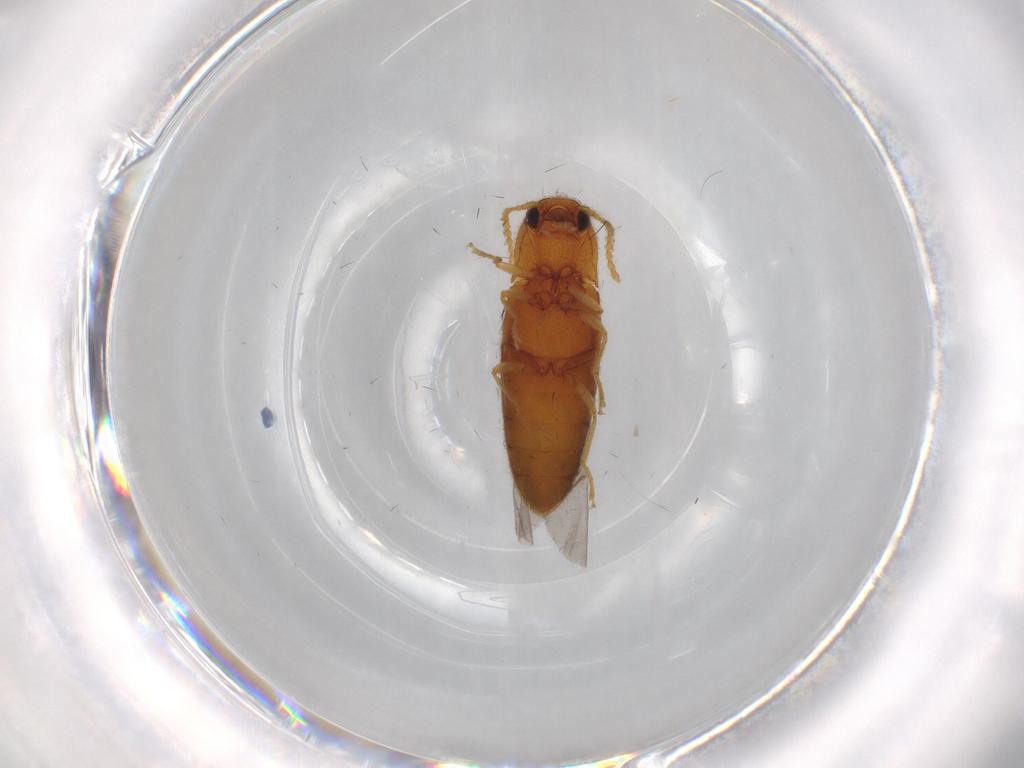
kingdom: Animalia
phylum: Arthropoda
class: Insecta
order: Coleoptera
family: Elateridae
